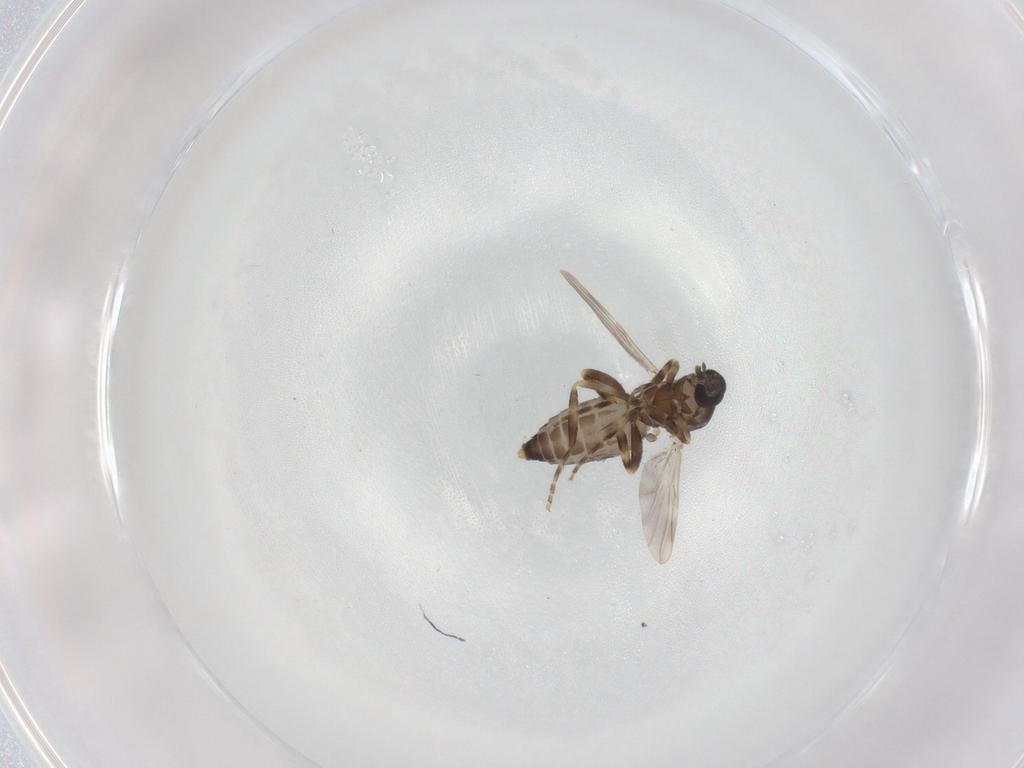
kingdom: Animalia
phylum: Arthropoda
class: Insecta
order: Diptera
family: Ceratopogonidae
